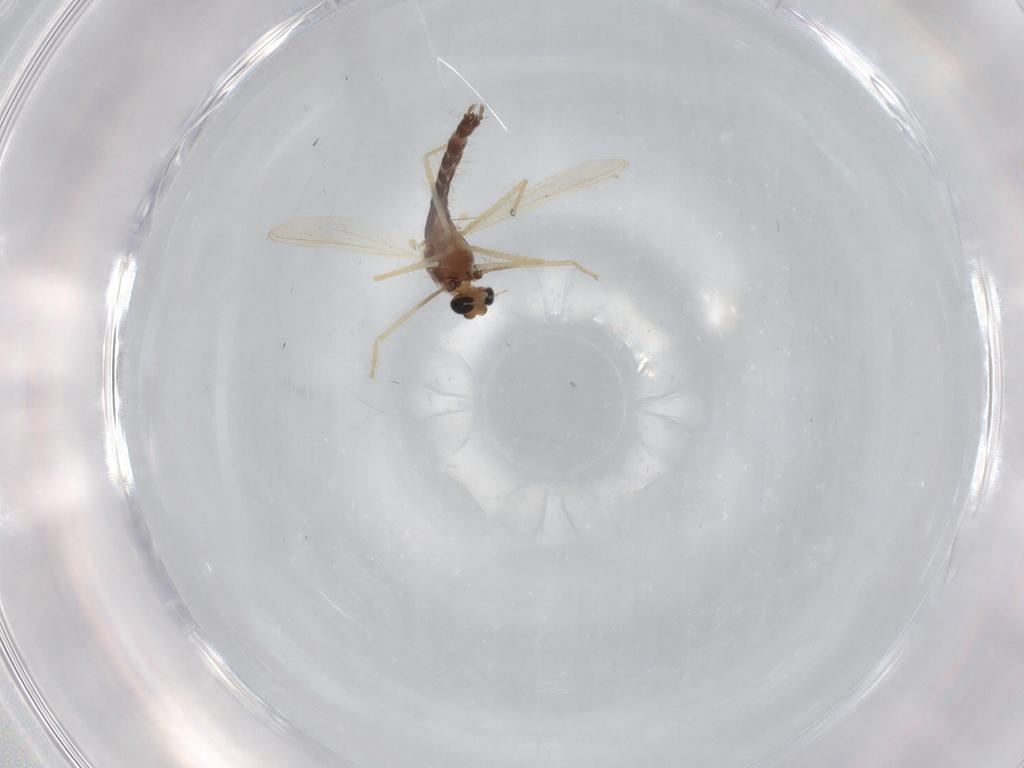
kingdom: Animalia
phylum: Arthropoda
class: Insecta
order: Diptera
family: Chironomidae
